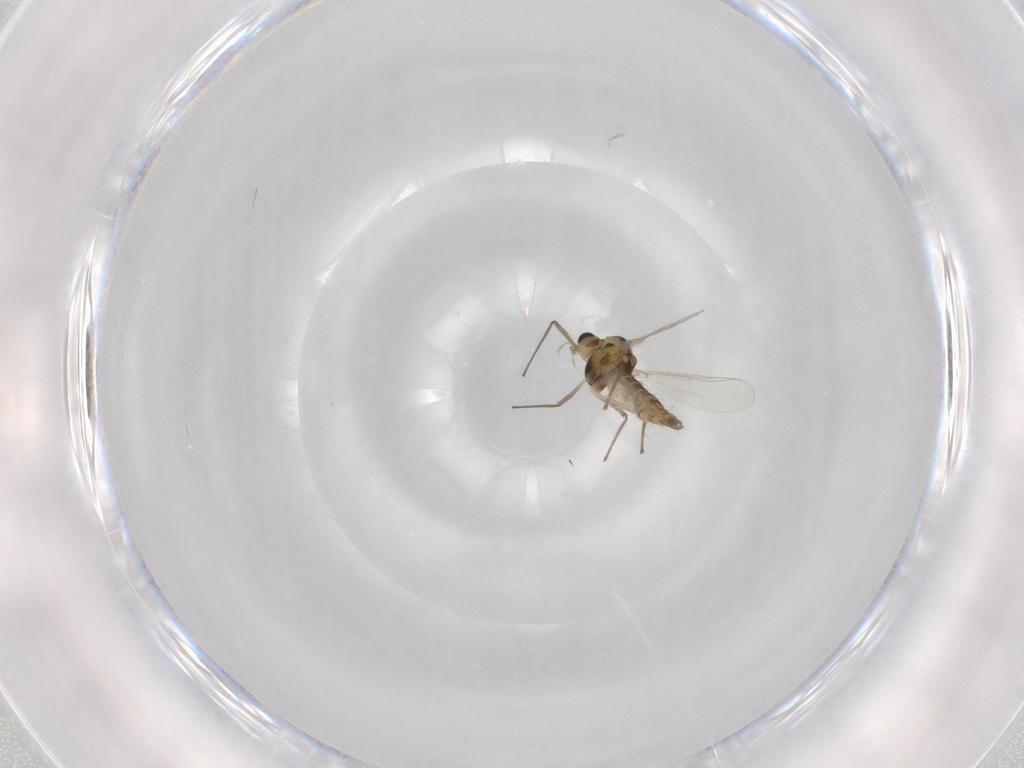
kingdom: Animalia
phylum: Arthropoda
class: Insecta
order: Diptera
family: Chironomidae
